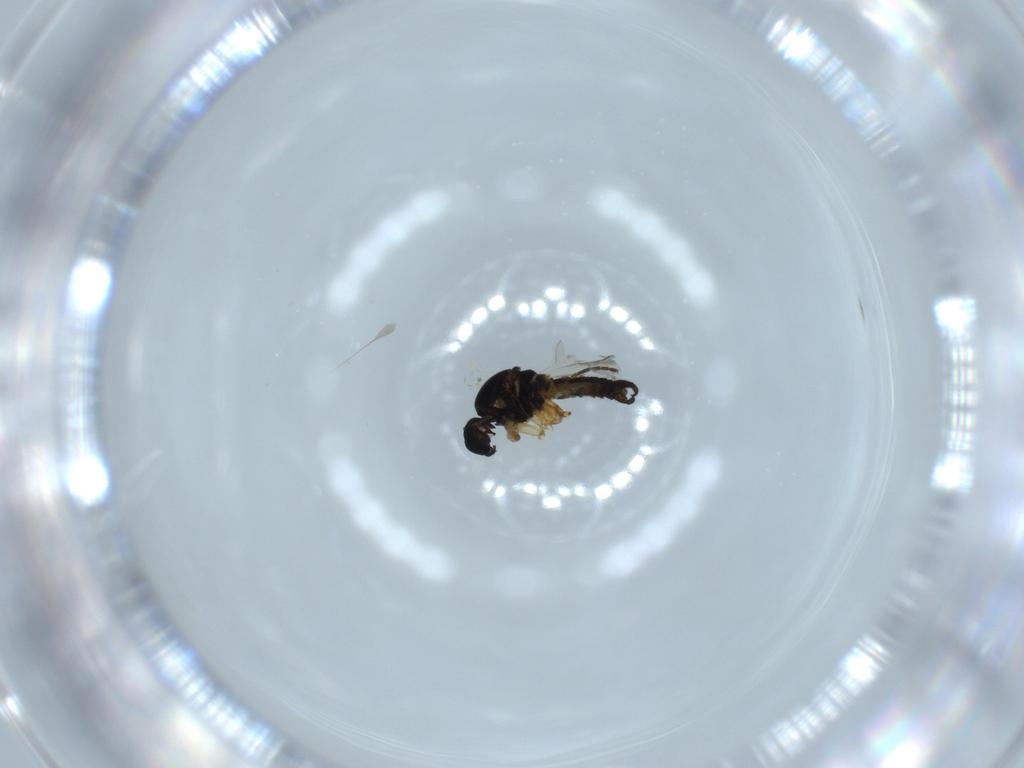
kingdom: Animalia
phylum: Arthropoda
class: Insecta
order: Diptera
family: Sciaridae
